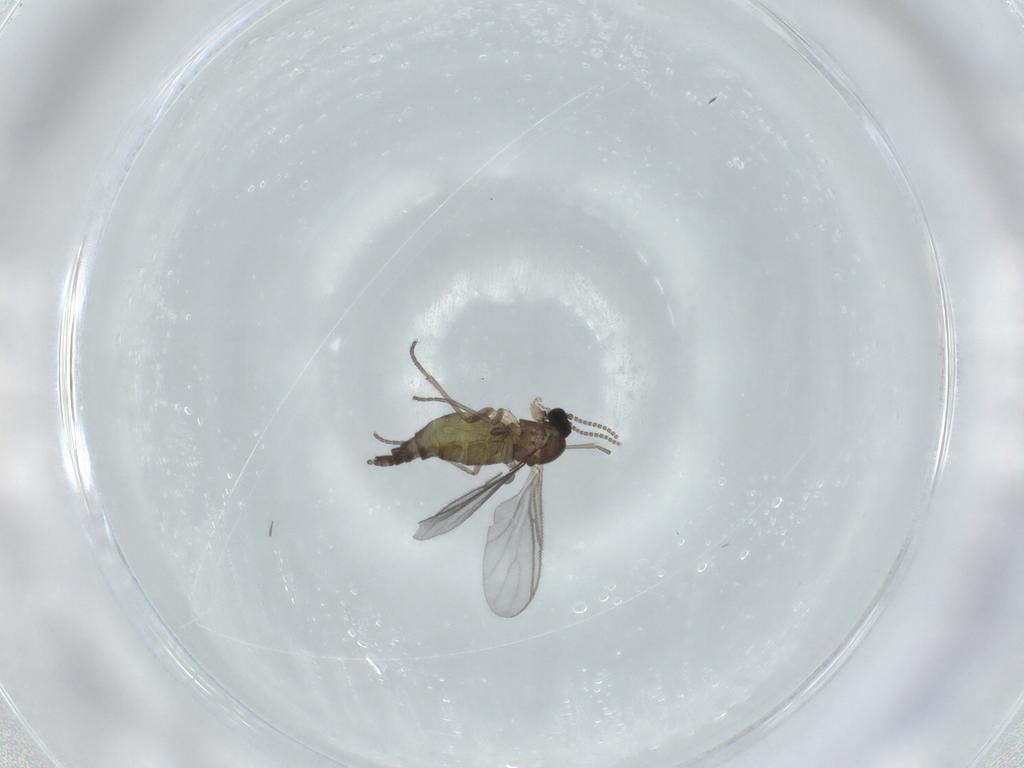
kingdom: Animalia
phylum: Arthropoda
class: Insecta
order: Diptera
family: Sciaridae
